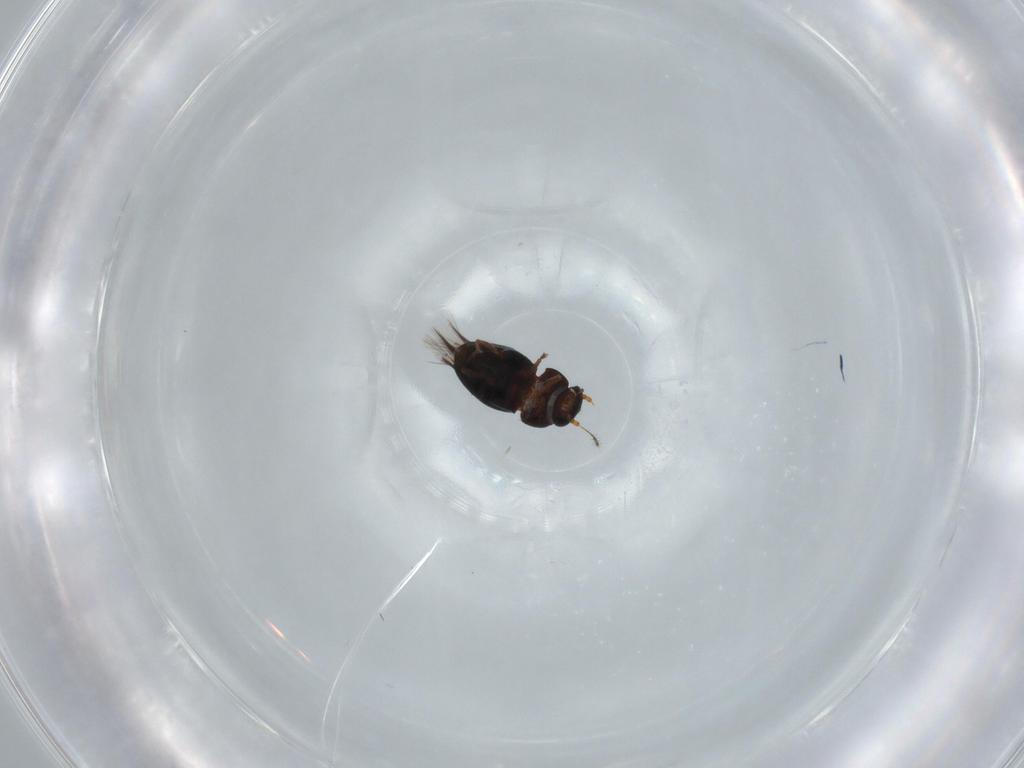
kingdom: Animalia
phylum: Arthropoda
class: Insecta
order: Coleoptera
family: Ptiliidae
